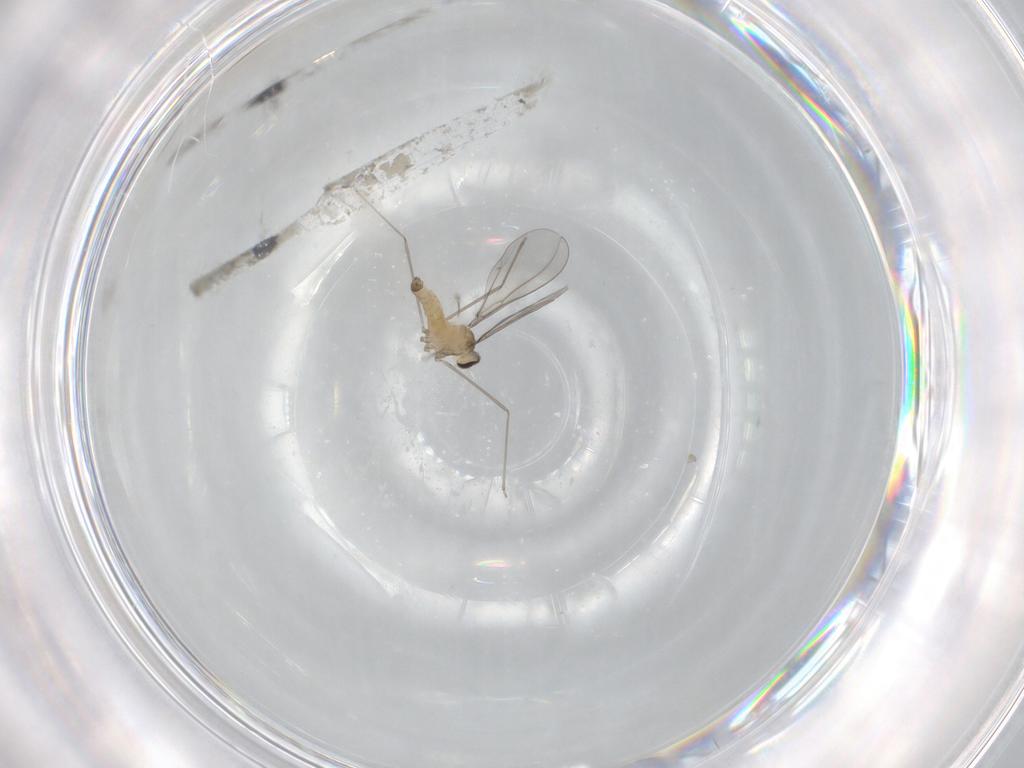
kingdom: Animalia
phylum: Arthropoda
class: Insecta
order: Diptera
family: Cecidomyiidae
